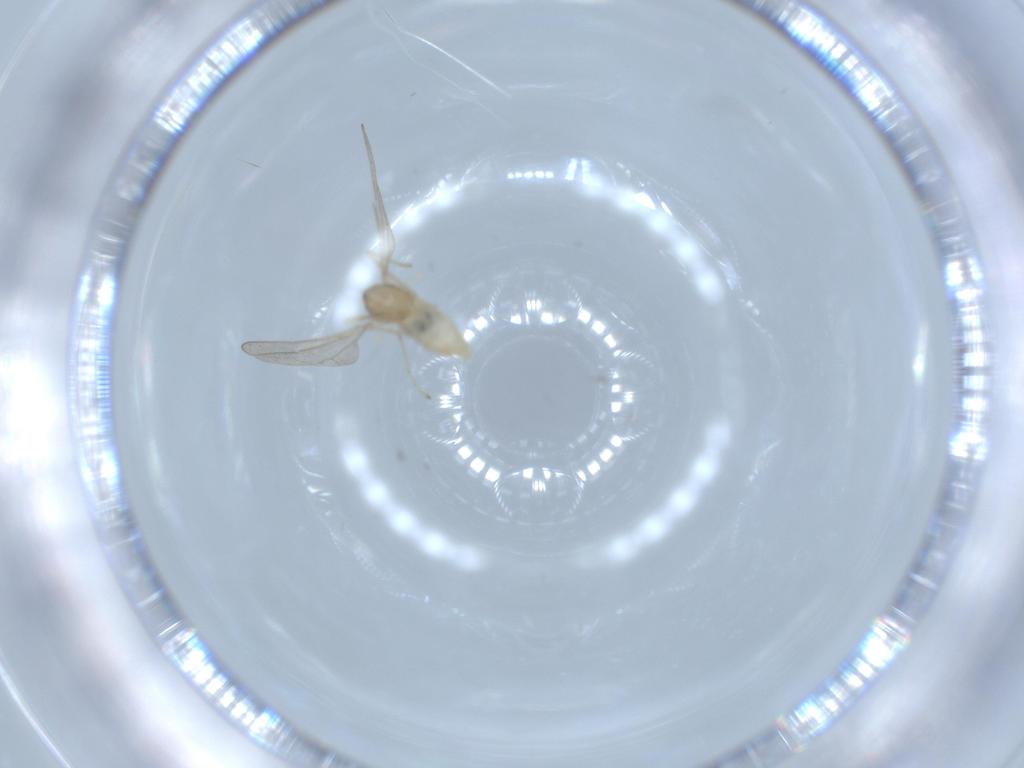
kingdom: Animalia
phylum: Arthropoda
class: Insecta
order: Diptera
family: Cecidomyiidae
